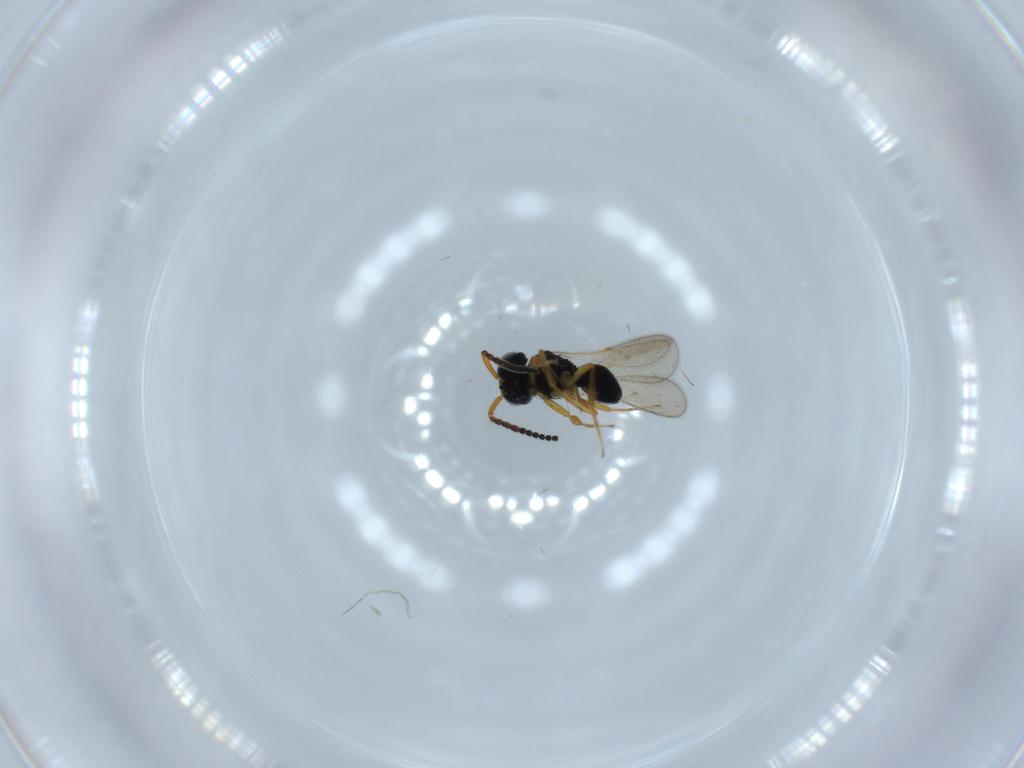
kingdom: Animalia
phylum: Arthropoda
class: Insecta
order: Hymenoptera
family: Scelionidae
